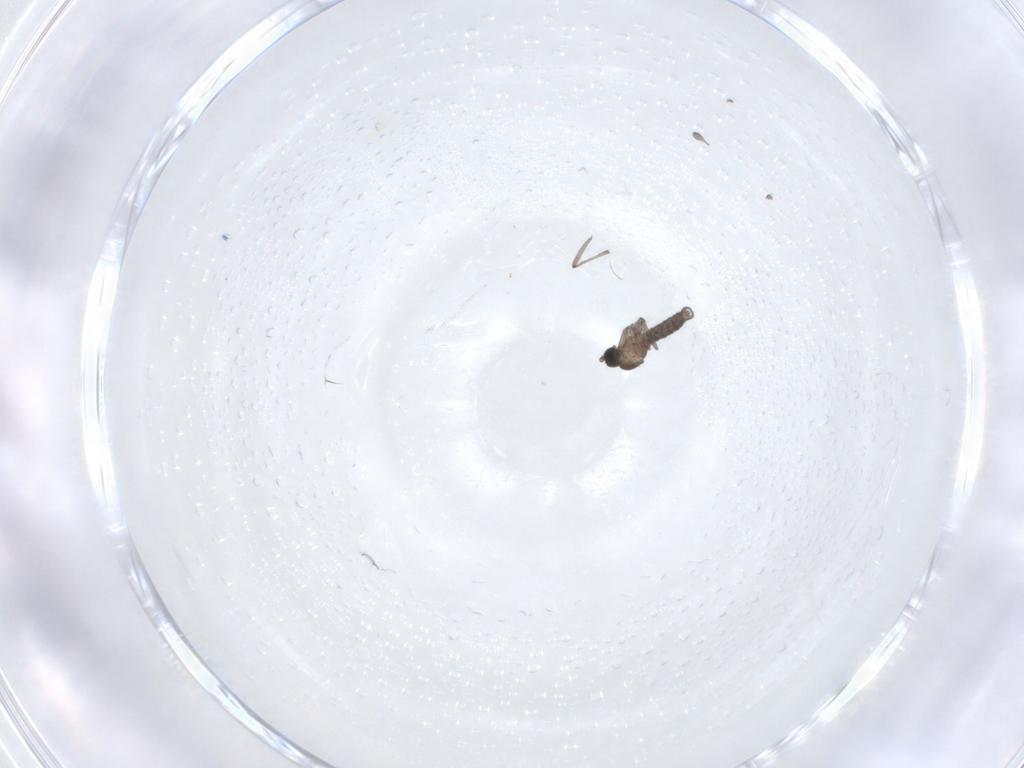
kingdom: Animalia
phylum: Arthropoda
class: Insecta
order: Diptera
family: Sciaridae
